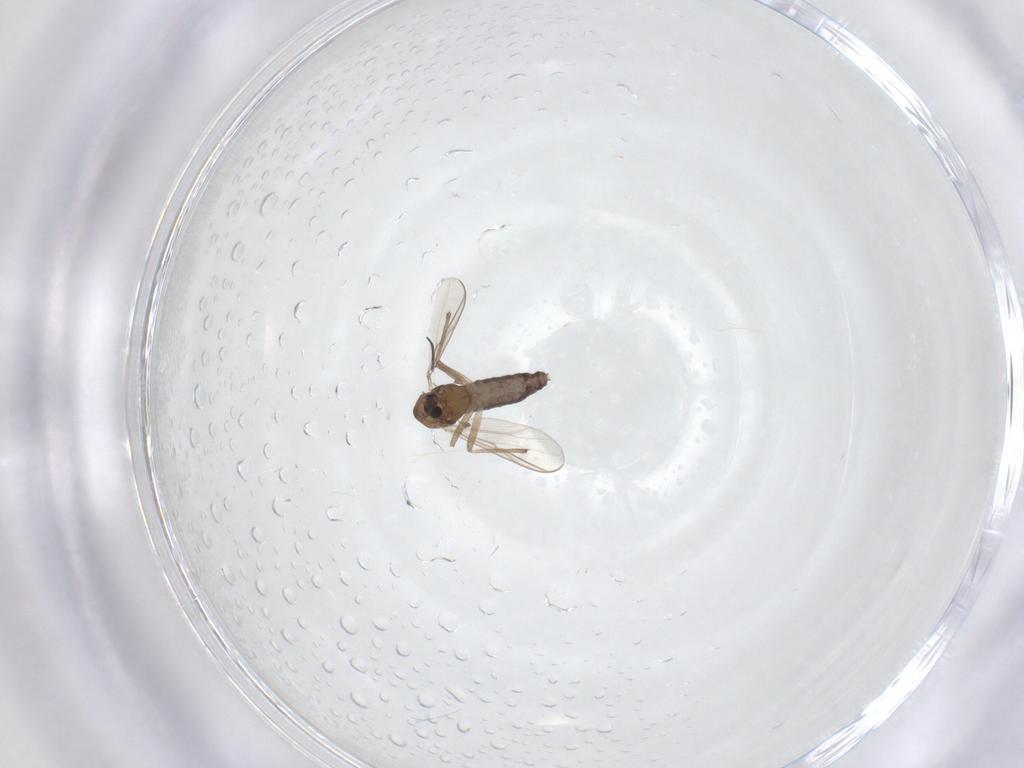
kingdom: Animalia
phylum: Arthropoda
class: Insecta
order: Diptera
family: Chironomidae
